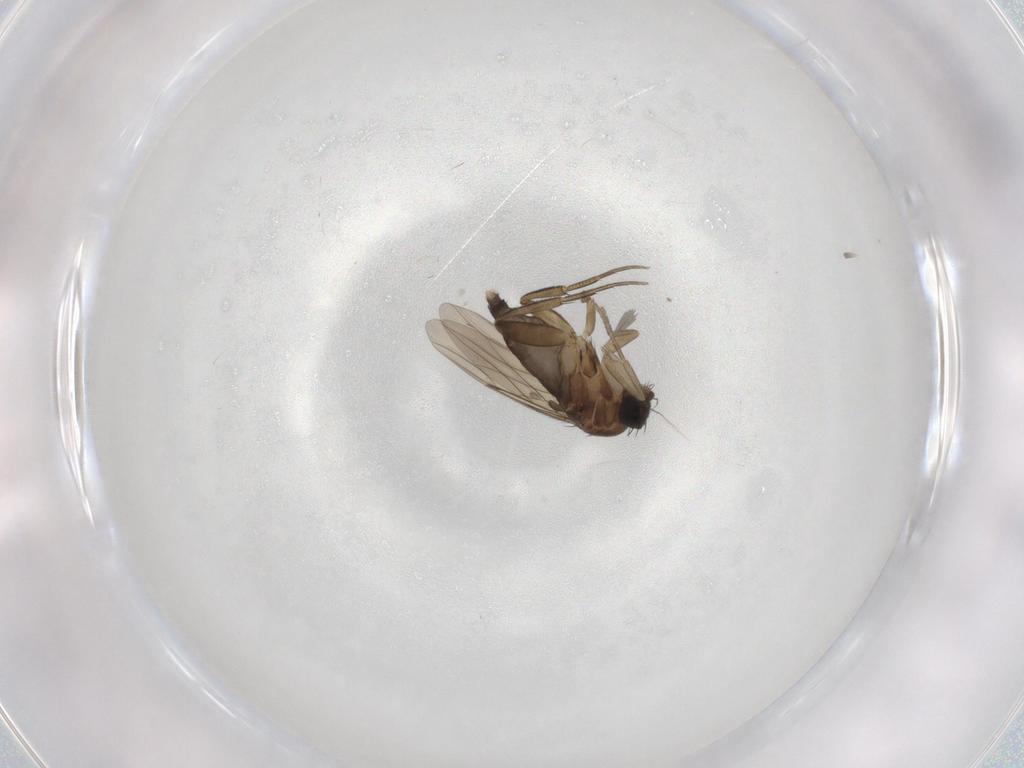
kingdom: Animalia
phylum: Arthropoda
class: Insecta
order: Diptera
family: Phoridae
